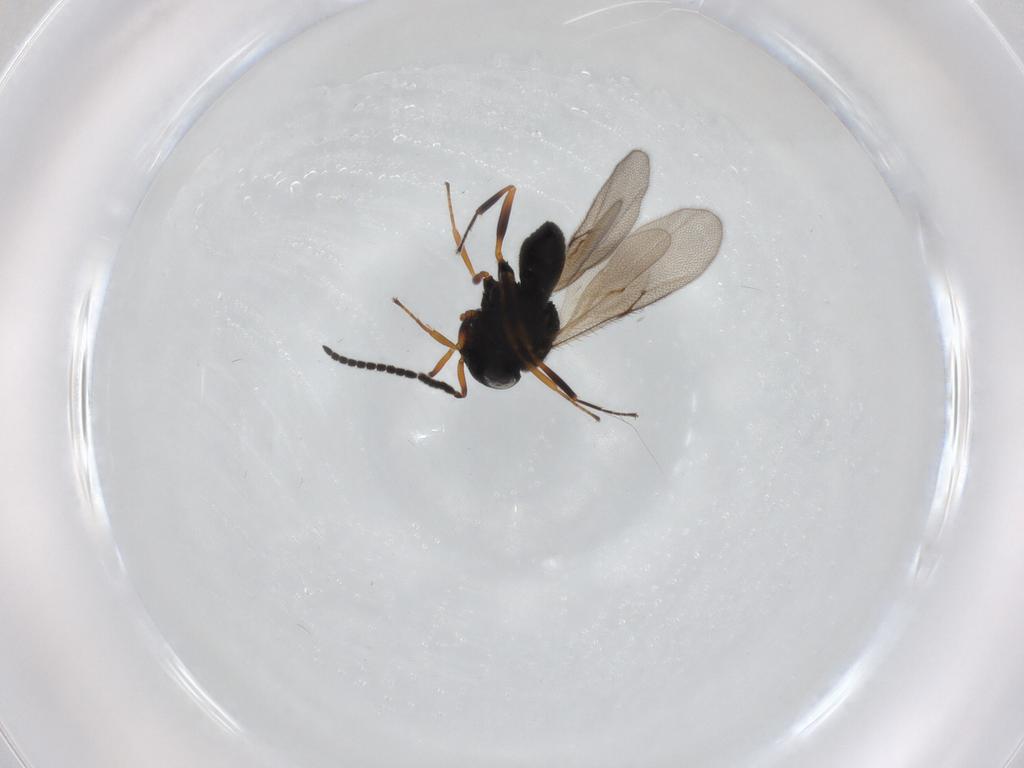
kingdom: Animalia
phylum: Arthropoda
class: Insecta
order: Hymenoptera
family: Scelionidae
